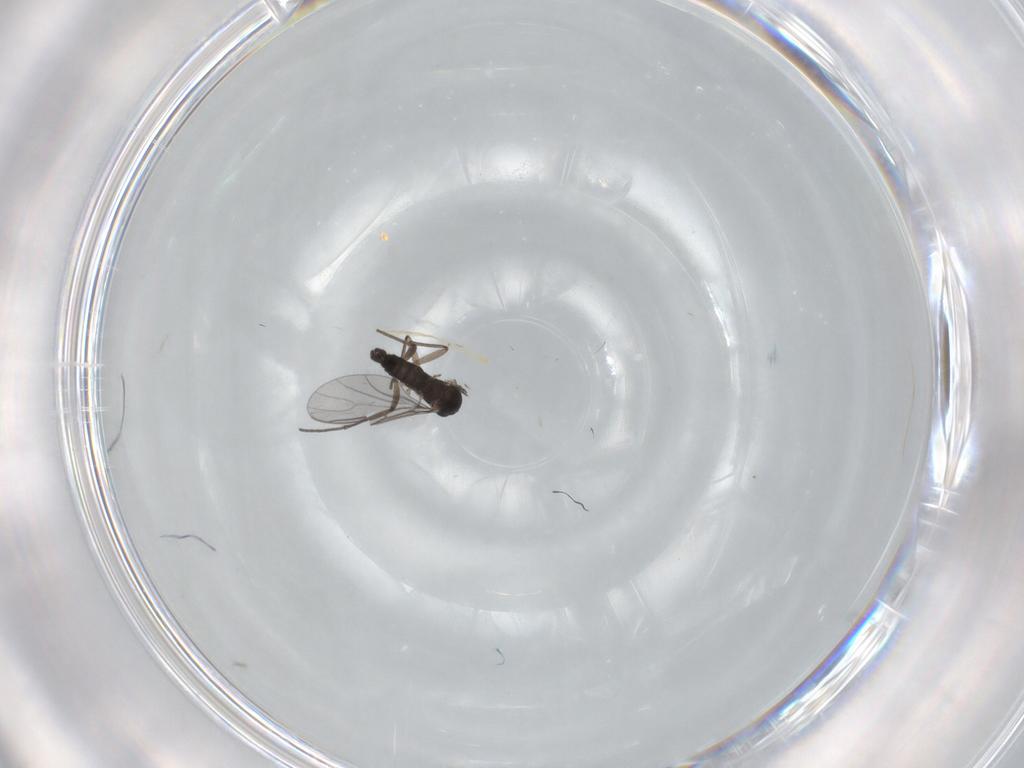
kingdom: Animalia
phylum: Arthropoda
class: Insecta
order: Diptera
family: Sciaridae
